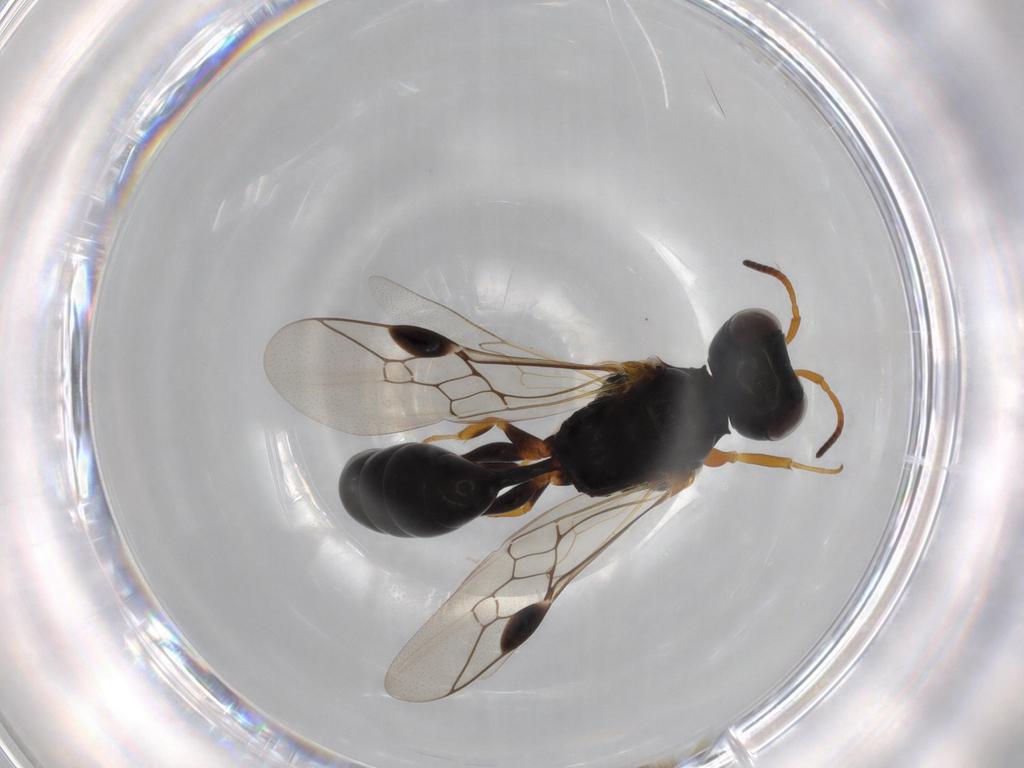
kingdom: Animalia
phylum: Arthropoda
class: Insecta
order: Hymenoptera
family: Pemphredonidae
